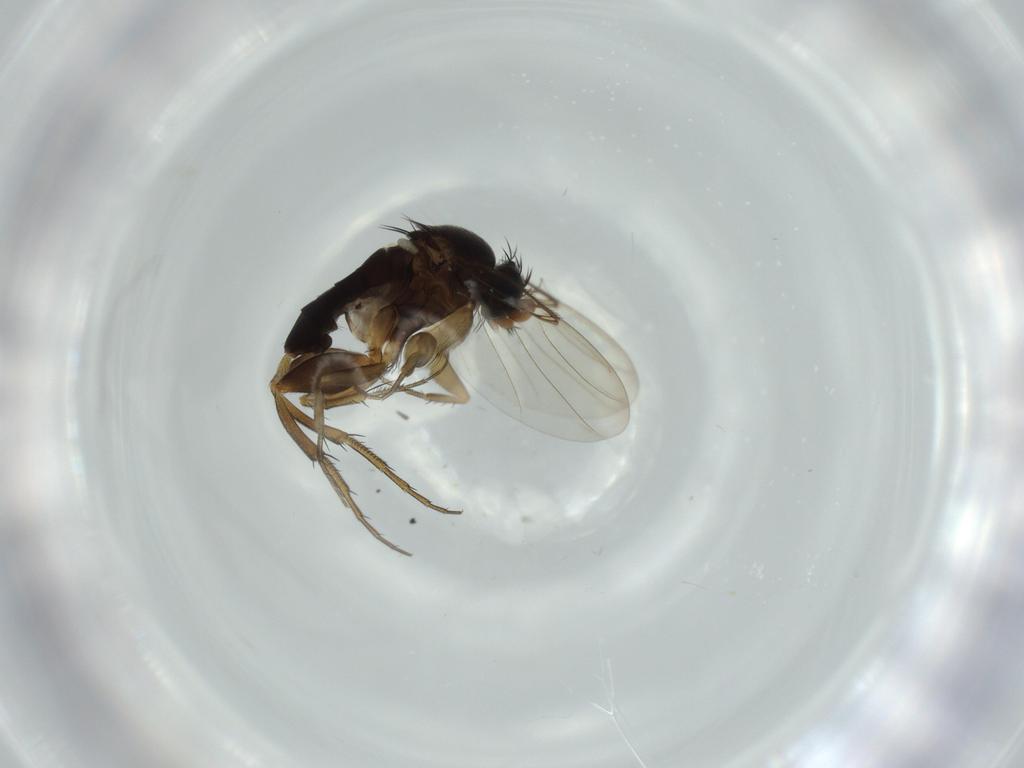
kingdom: Animalia
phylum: Arthropoda
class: Insecta
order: Diptera
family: Phoridae
